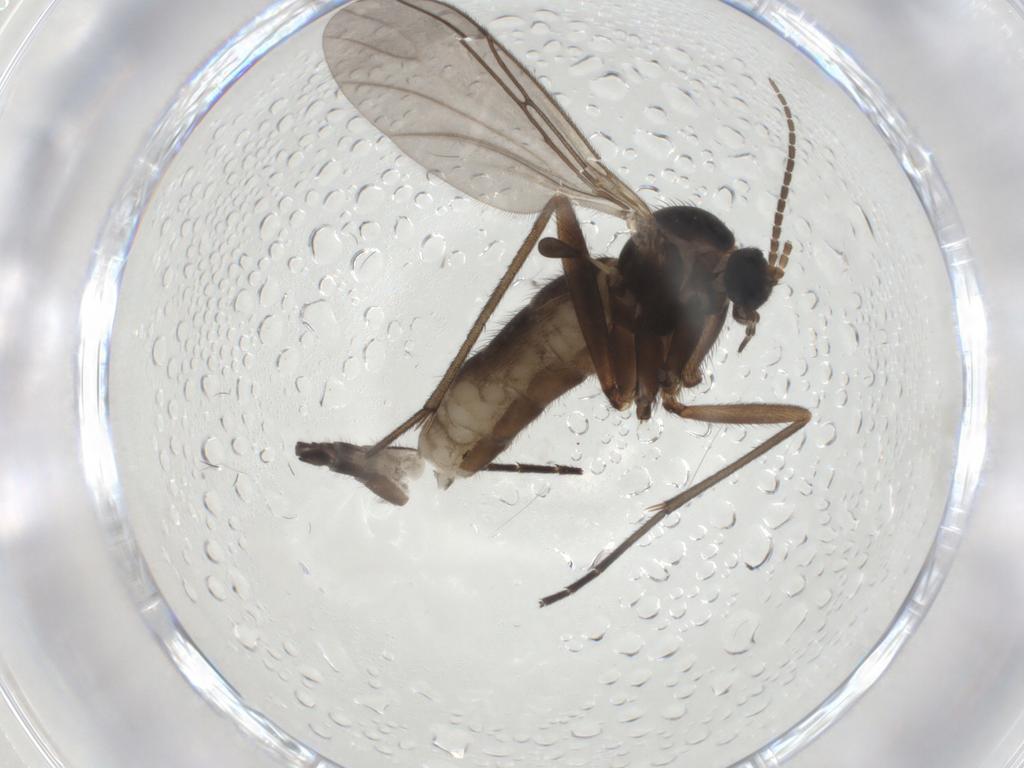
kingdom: Animalia
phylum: Arthropoda
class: Insecta
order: Diptera
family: Sciaridae
